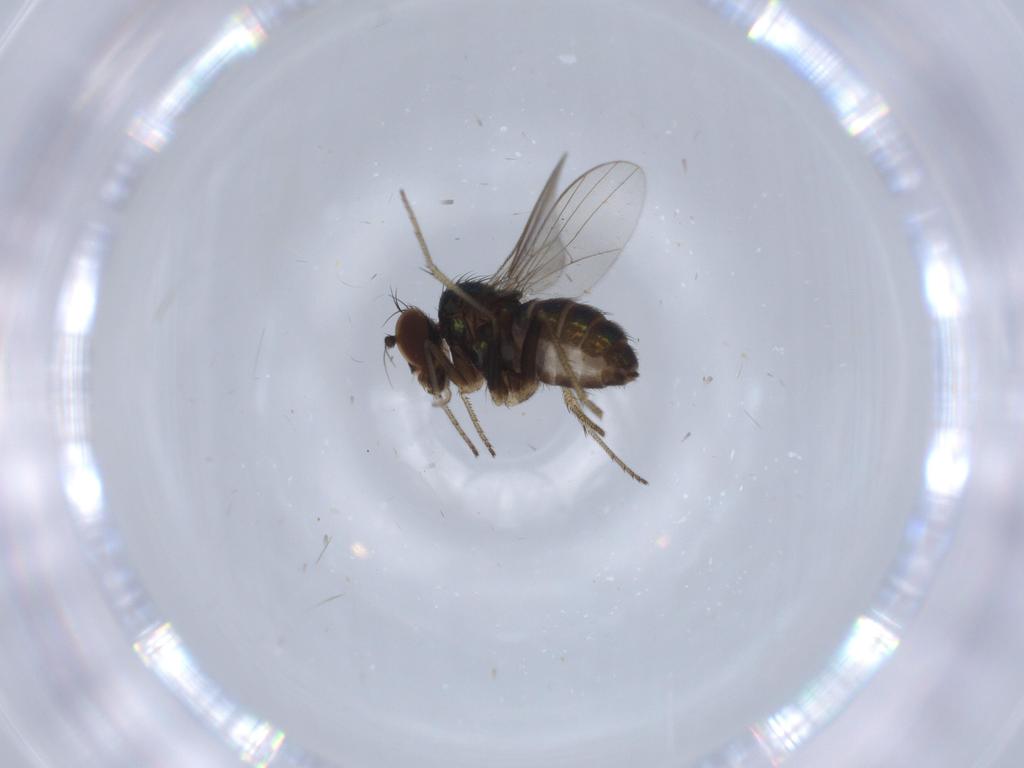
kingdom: Animalia
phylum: Arthropoda
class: Insecta
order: Diptera
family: Dolichopodidae
